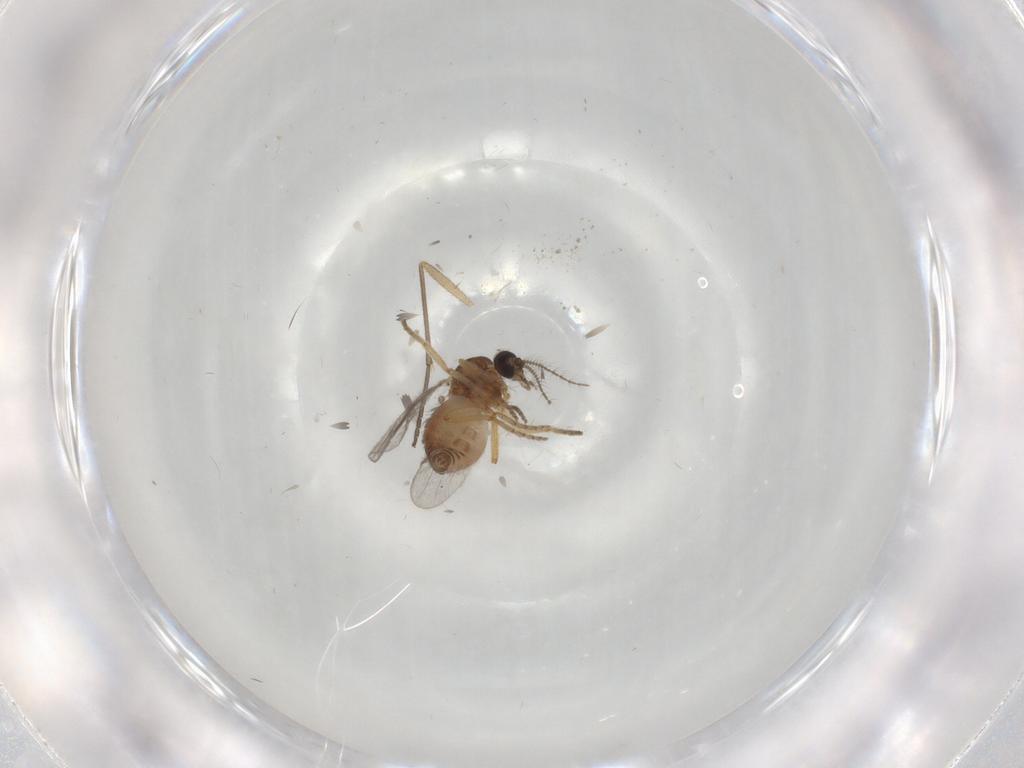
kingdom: Animalia
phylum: Arthropoda
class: Insecta
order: Diptera
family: Ceratopogonidae
